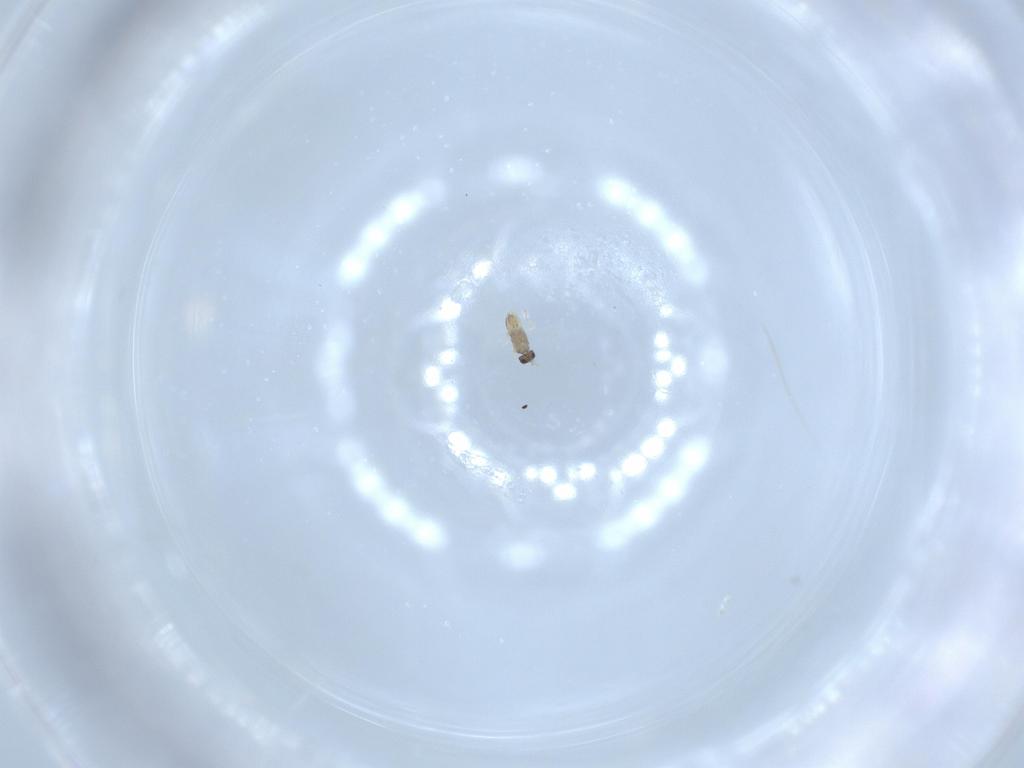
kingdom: Animalia
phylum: Arthropoda
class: Insecta
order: Hymenoptera
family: Mymaridae
